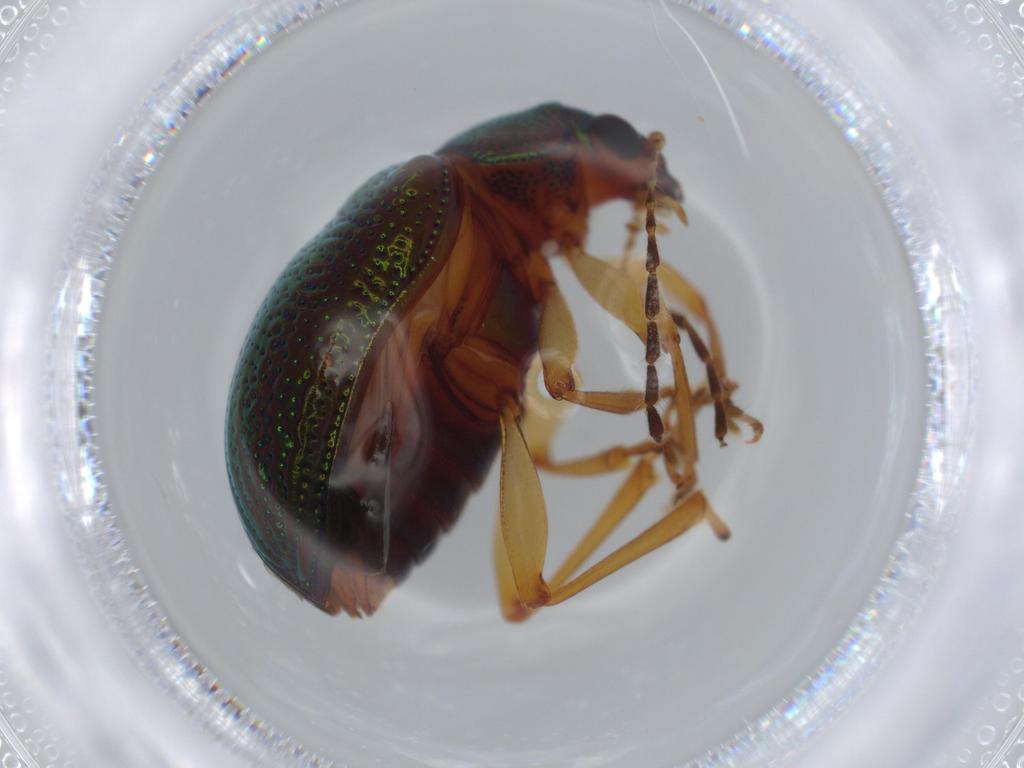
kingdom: Animalia
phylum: Arthropoda
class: Insecta
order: Coleoptera
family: Chrysomelidae
